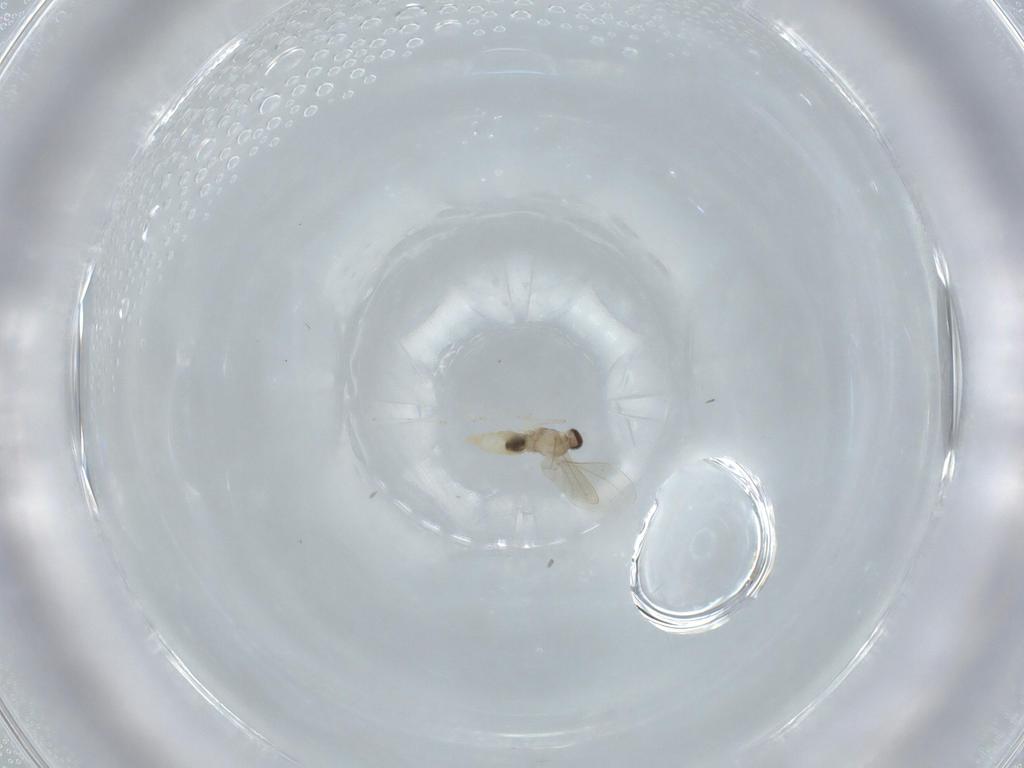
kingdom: Animalia
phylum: Arthropoda
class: Insecta
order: Diptera
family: Ceratopogonidae
